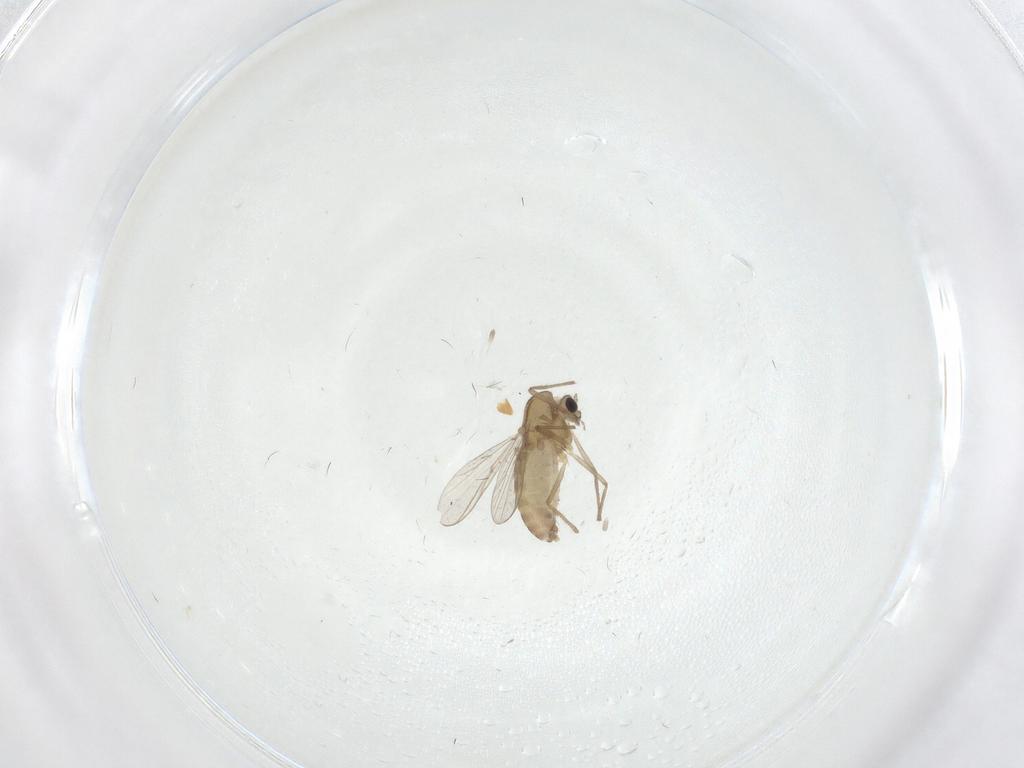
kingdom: Animalia
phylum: Arthropoda
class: Insecta
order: Diptera
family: Chironomidae
